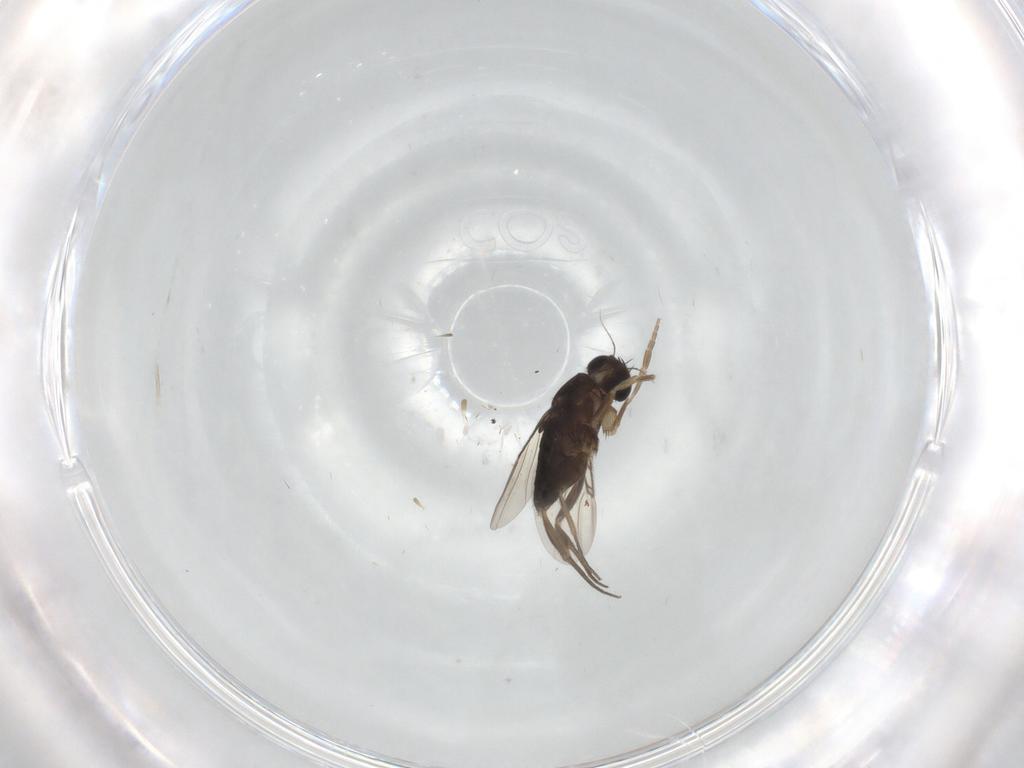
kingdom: Animalia
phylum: Arthropoda
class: Insecta
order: Diptera
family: Phoridae
